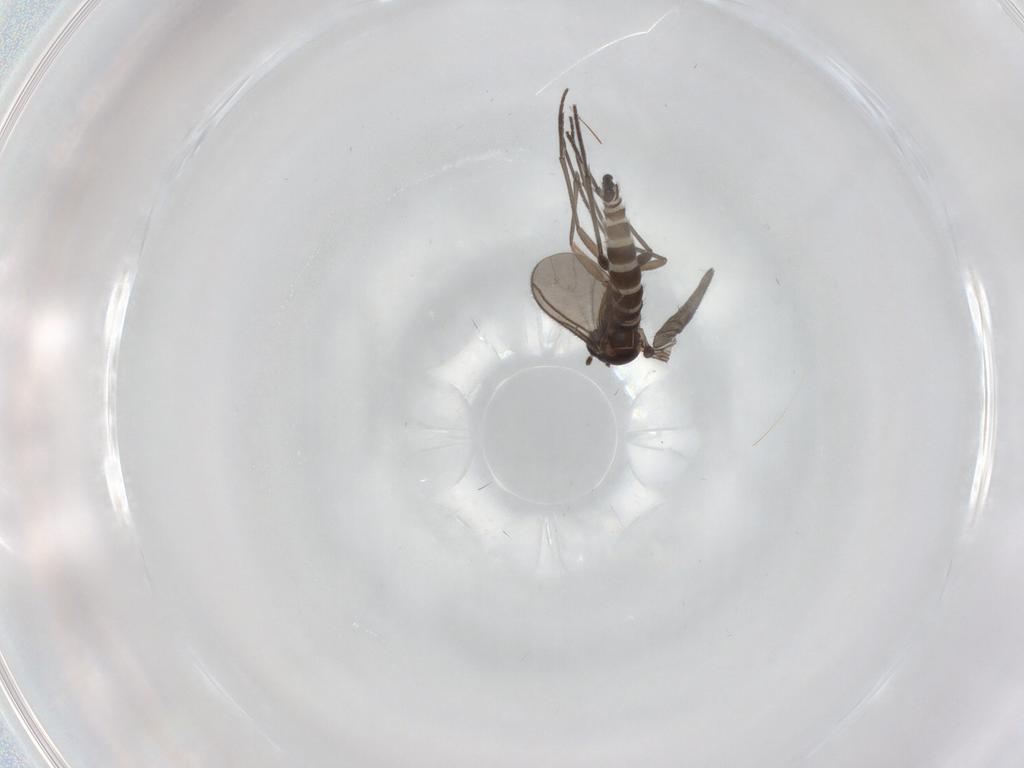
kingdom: Animalia
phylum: Arthropoda
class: Insecta
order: Diptera
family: Sciaridae
